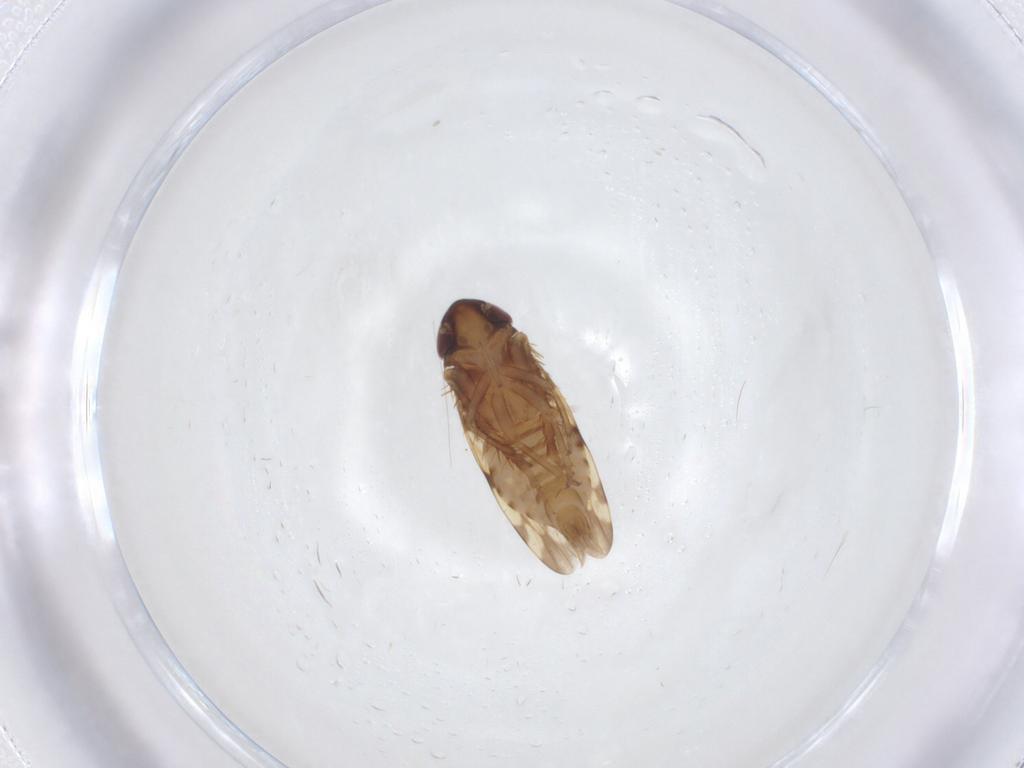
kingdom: Animalia
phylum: Arthropoda
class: Insecta
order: Hemiptera
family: Cicadellidae
